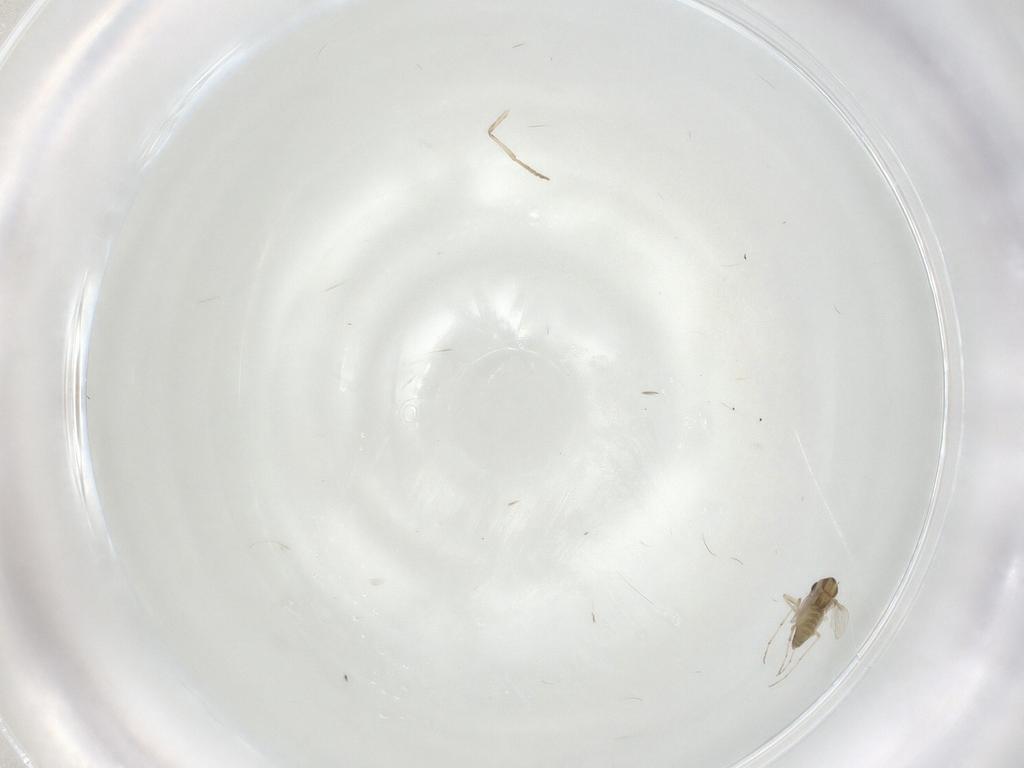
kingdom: Animalia
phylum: Arthropoda
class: Insecta
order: Diptera
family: Chironomidae
